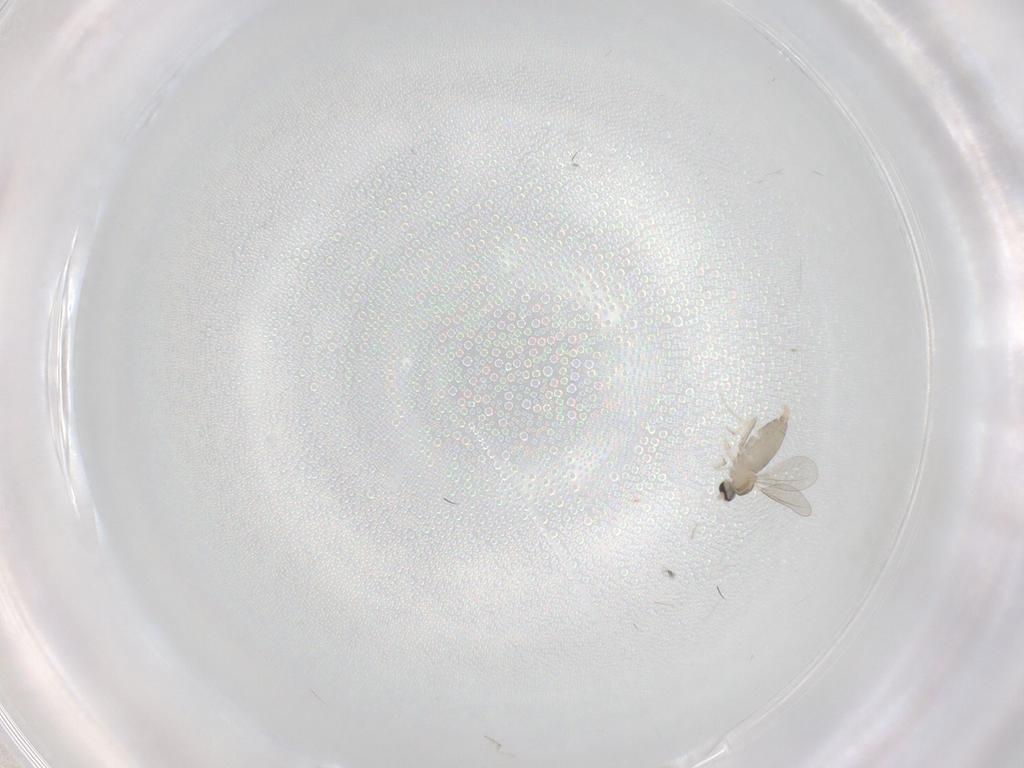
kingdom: Animalia
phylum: Arthropoda
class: Insecta
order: Diptera
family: Cecidomyiidae
